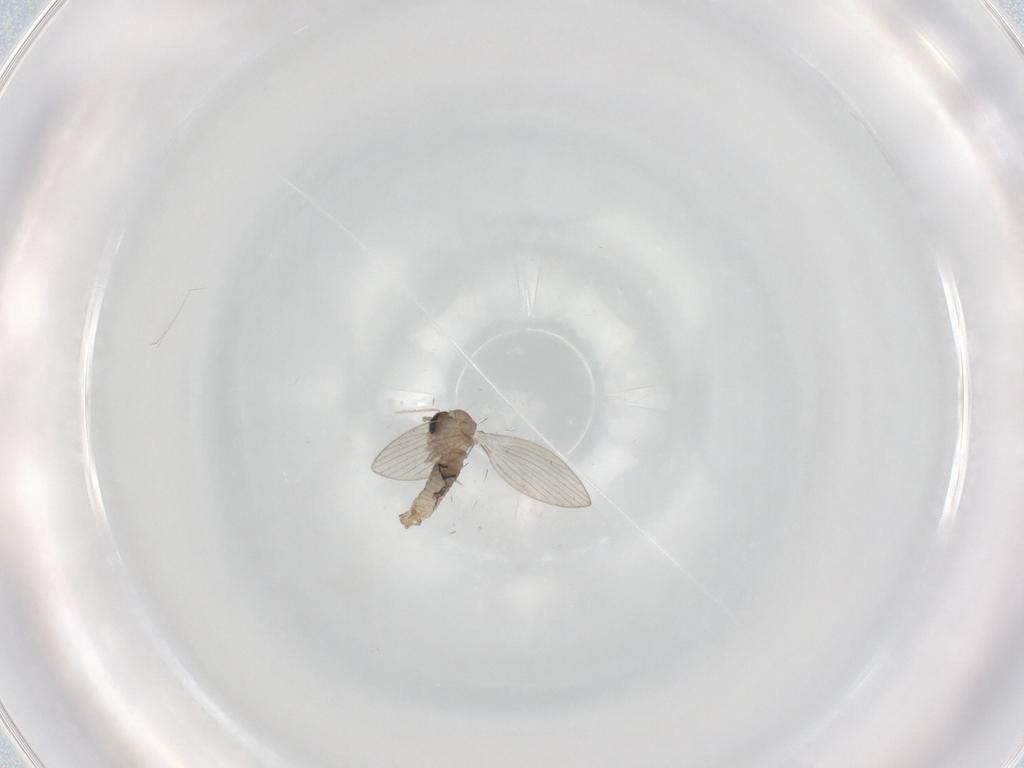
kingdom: Animalia
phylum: Arthropoda
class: Insecta
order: Diptera
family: Psychodidae
